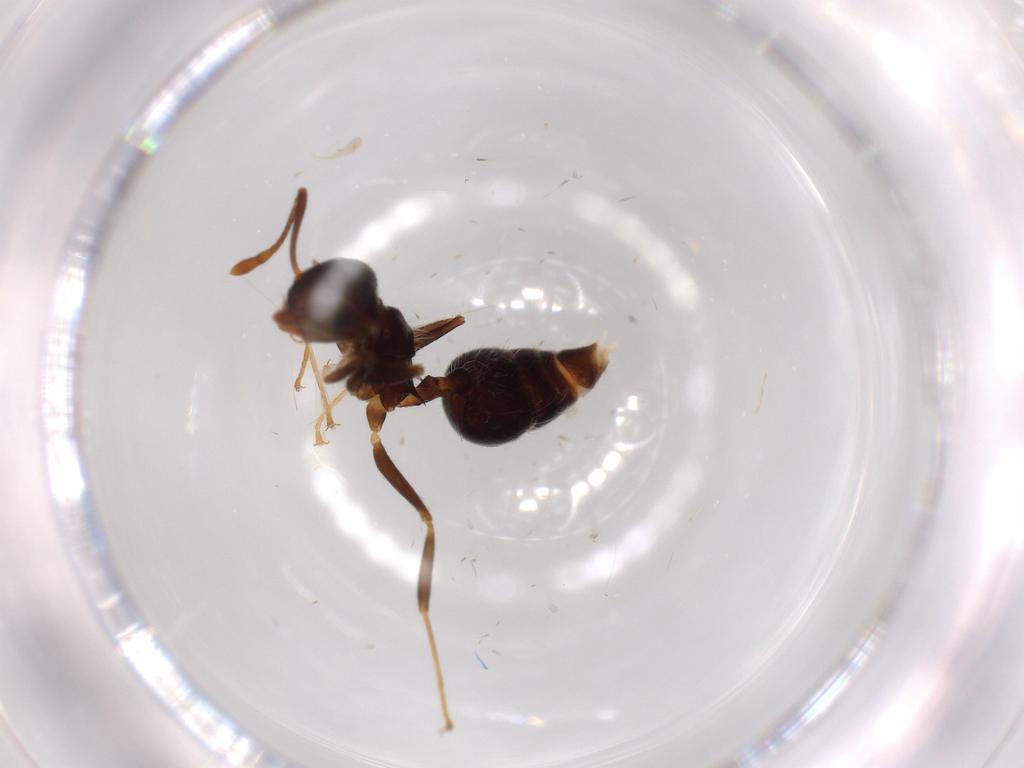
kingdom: Animalia
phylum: Arthropoda
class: Insecta
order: Hymenoptera
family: Formicidae
